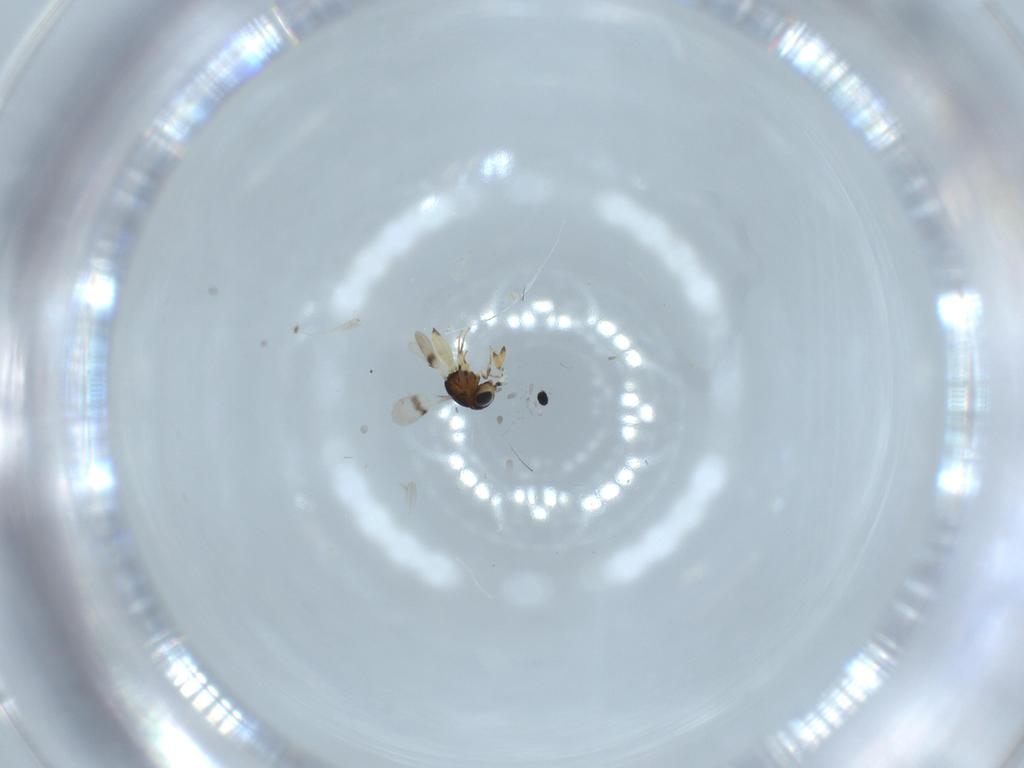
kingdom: Animalia
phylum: Arthropoda
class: Insecta
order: Hymenoptera
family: Scelionidae
